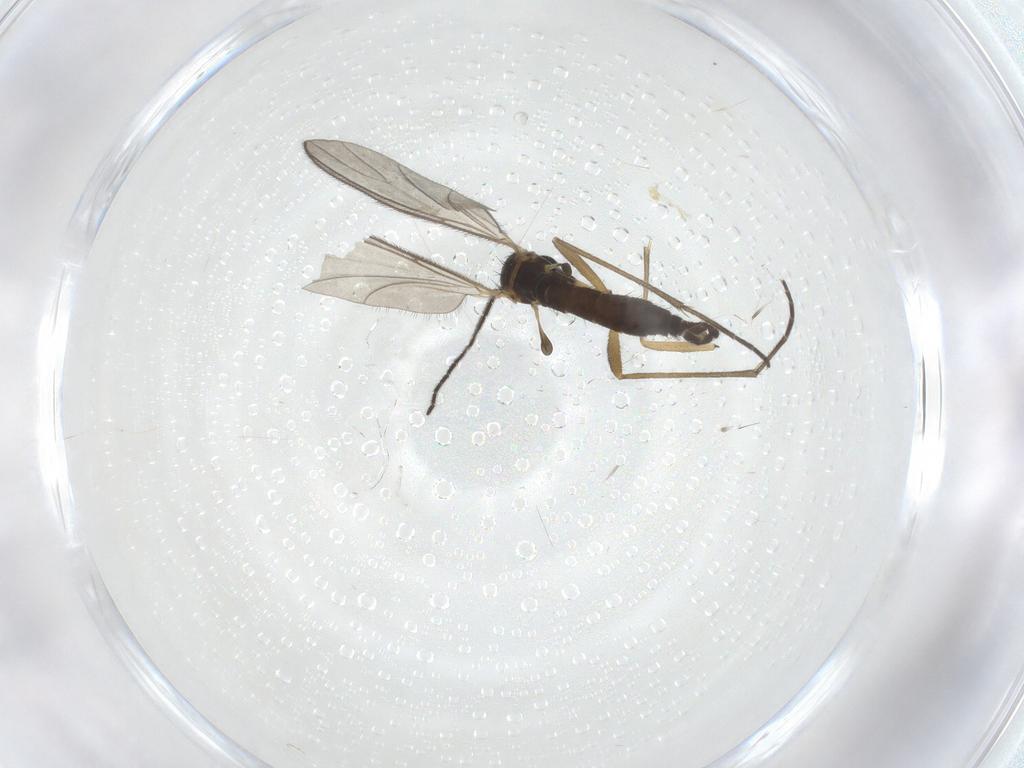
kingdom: Animalia
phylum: Arthropoda
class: Insecta
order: Diptera
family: Sciaridae
